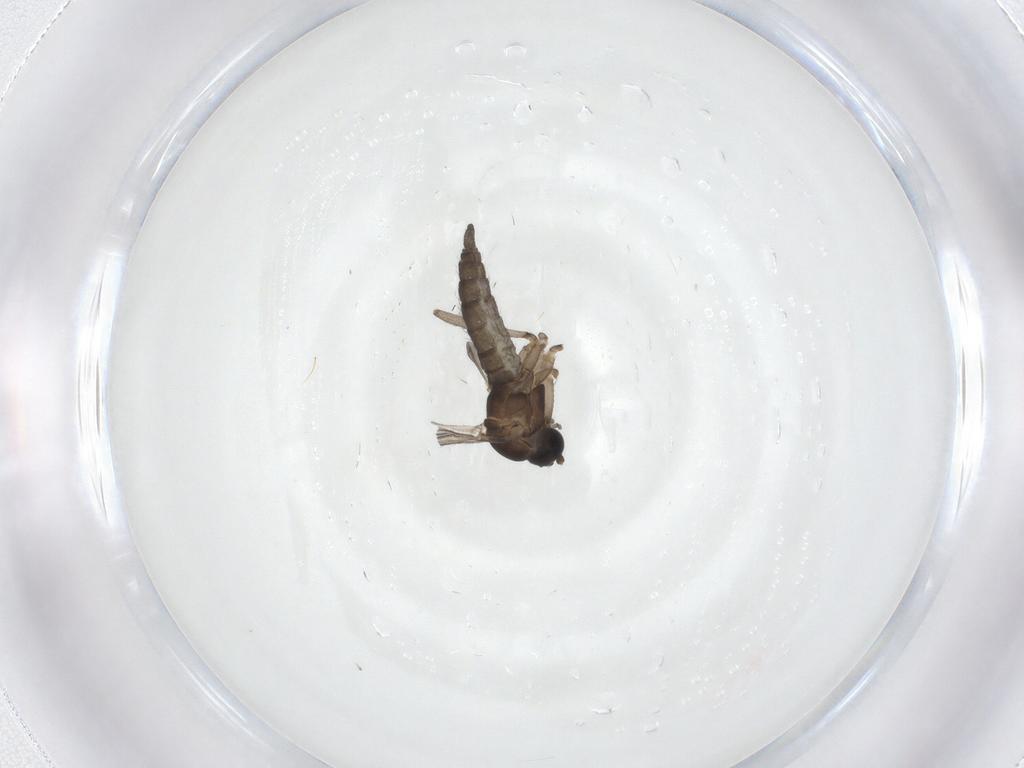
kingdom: Animalia
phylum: Arthropoda
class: Insecta
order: Diptera
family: Sciaridae
